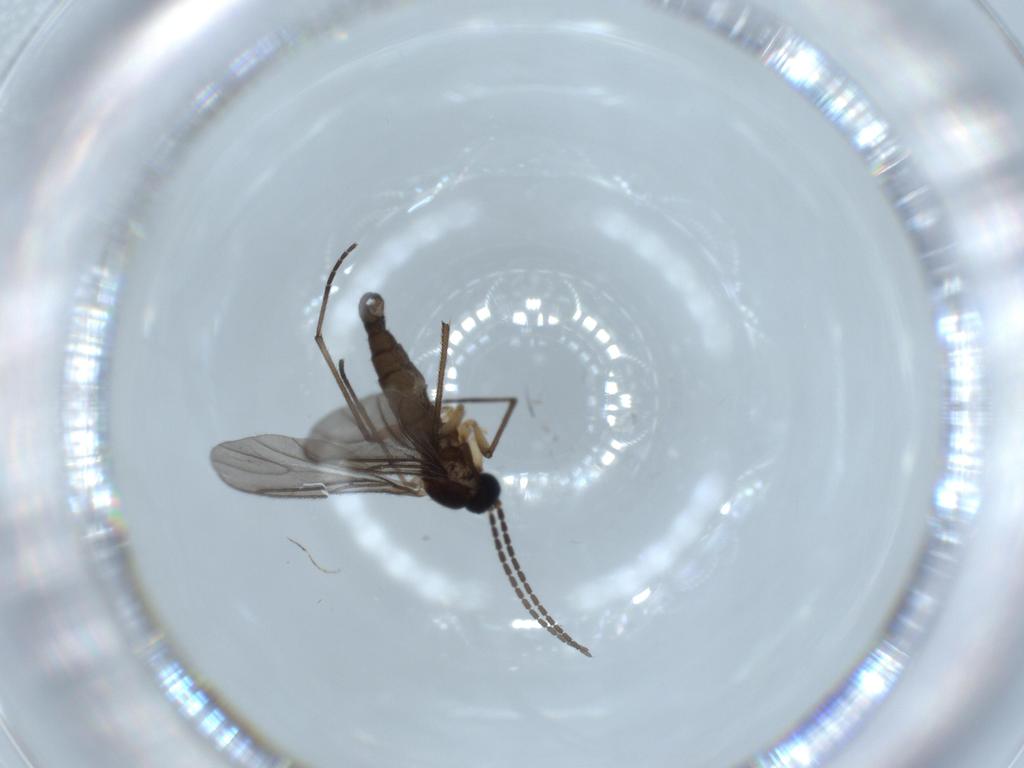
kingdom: Animalia
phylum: Arthropoda
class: Insecta
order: Diptera
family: Sciaridae
